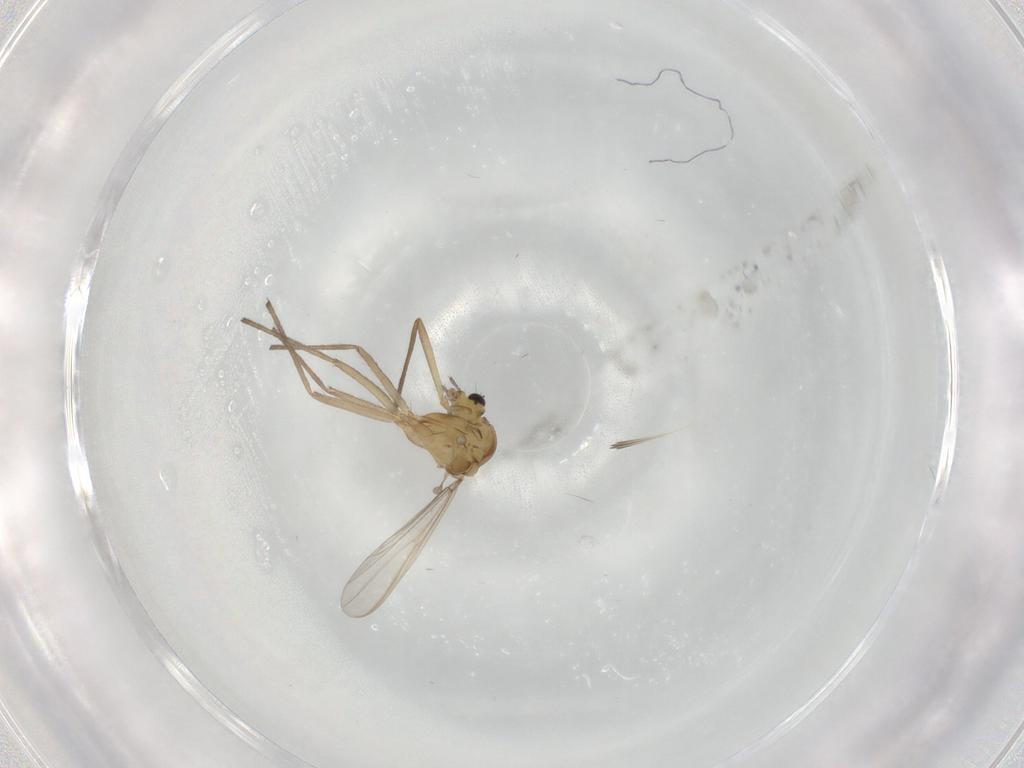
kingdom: Animalia
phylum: Arthropoda
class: Insecta
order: Diptera
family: Chironomidae
